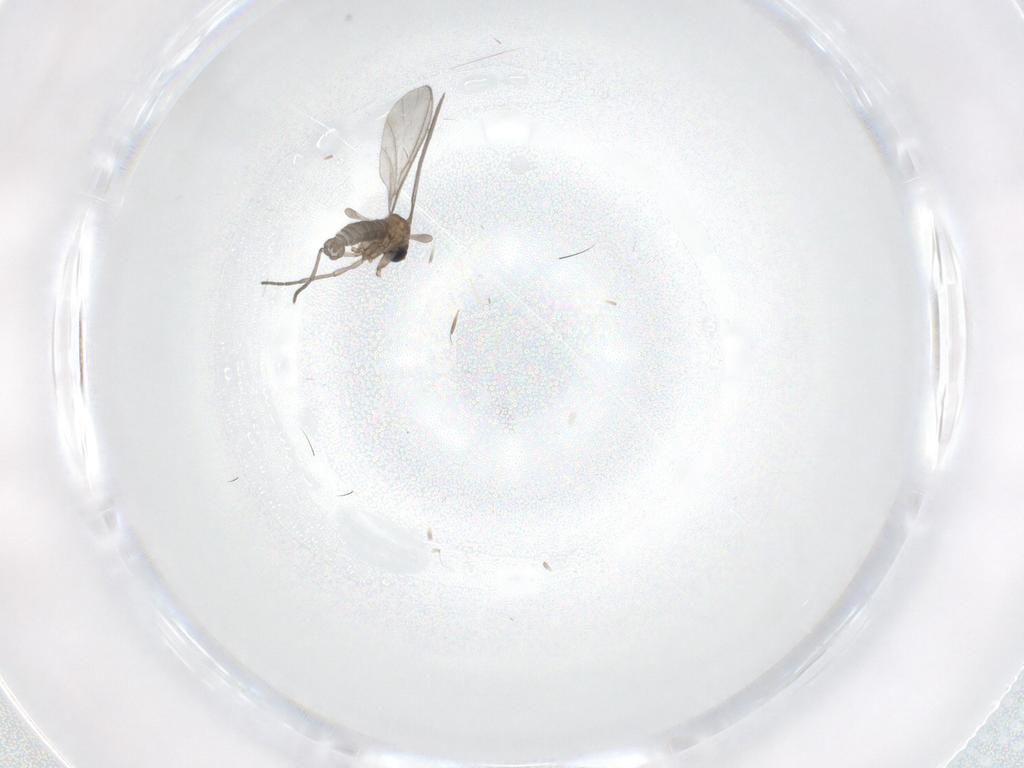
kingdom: Animalia
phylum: Arthropoda
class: Insecta
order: Diptera
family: Sciaridae
